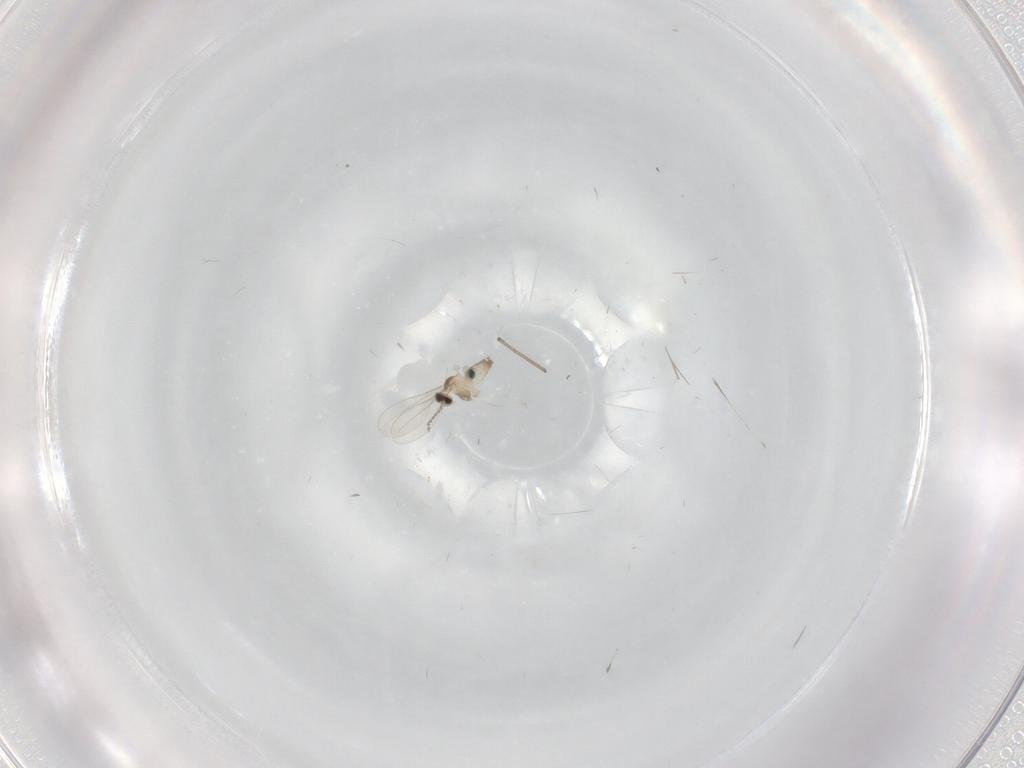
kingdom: Animalia
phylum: Arthropoda
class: Insecta
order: Diptera
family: Cecidomyiidae
